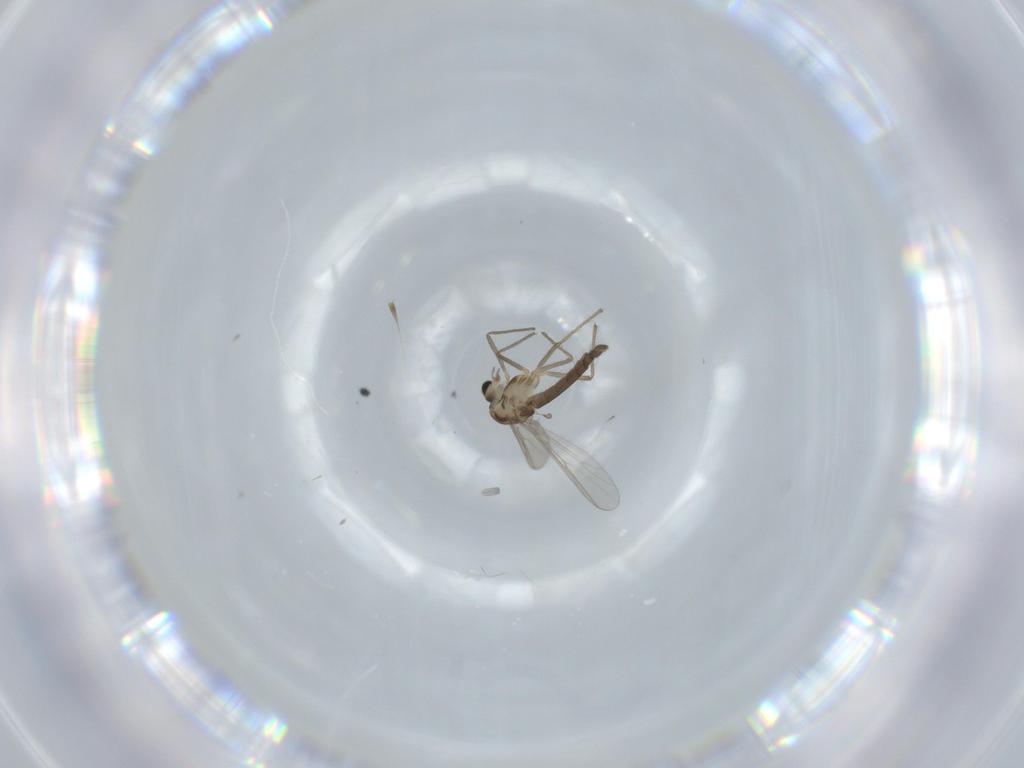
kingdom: Animalia
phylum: Arthropoda
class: Insecta
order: Diptera
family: Chironomidae
